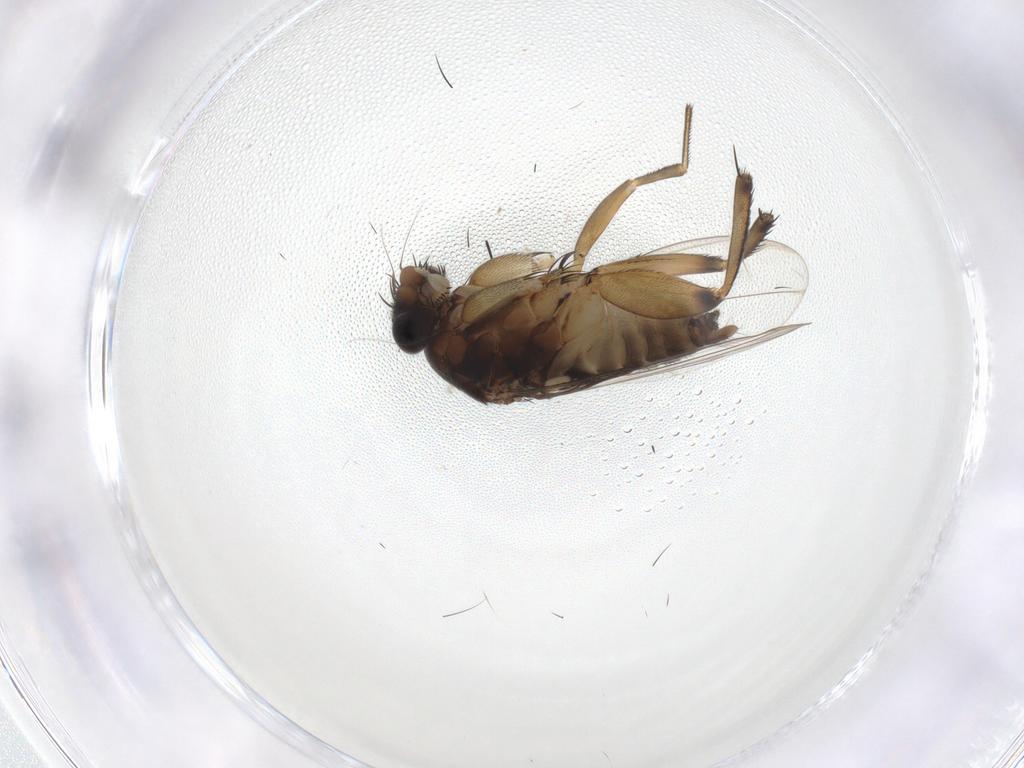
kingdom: Animalia
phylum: Arthropoda
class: Insecta
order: Diptera
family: Phoridae
